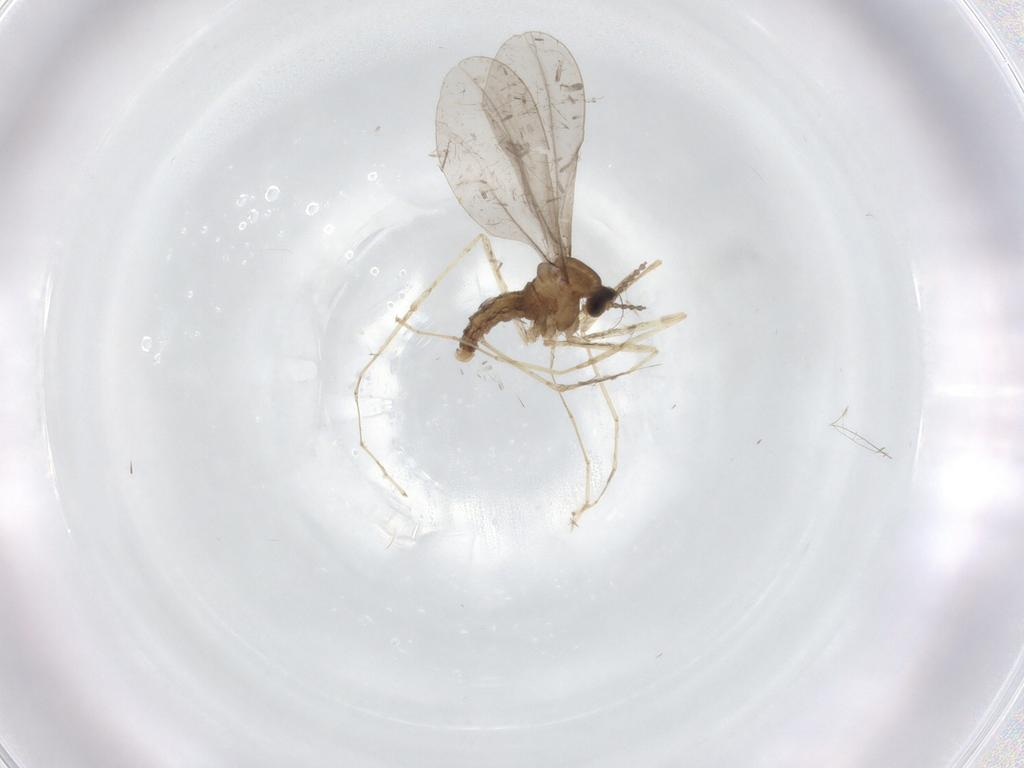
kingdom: Animalia
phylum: Arthropoda
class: Insecta
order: Diptera
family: Cecidomyiidae
